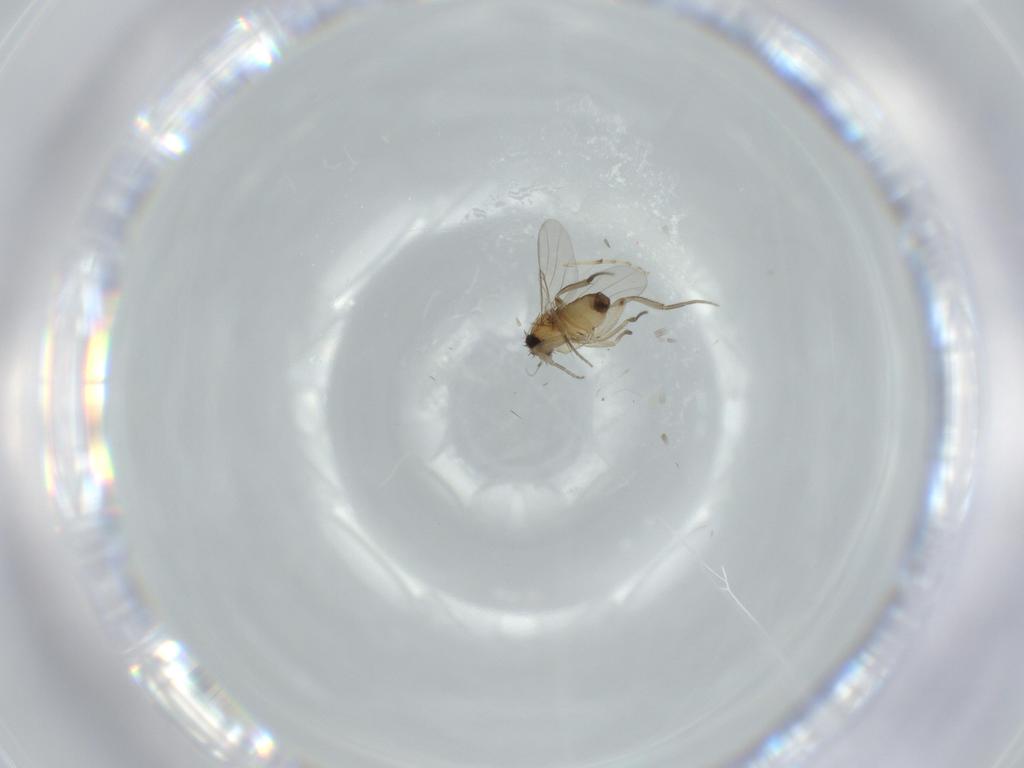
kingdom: Animalia
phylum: Arthropoda
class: Insecta
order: Diptera
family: Phoridae
